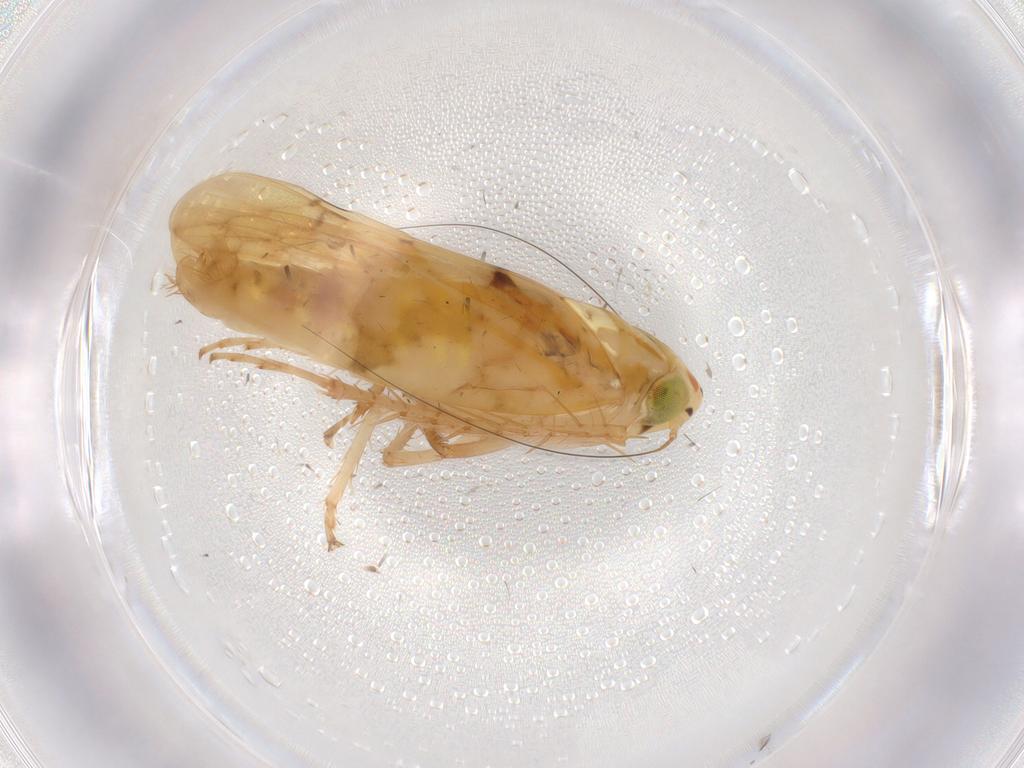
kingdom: Animalia
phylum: Arthropoda
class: Insecta
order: Hemiptera
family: Cicadellidae
